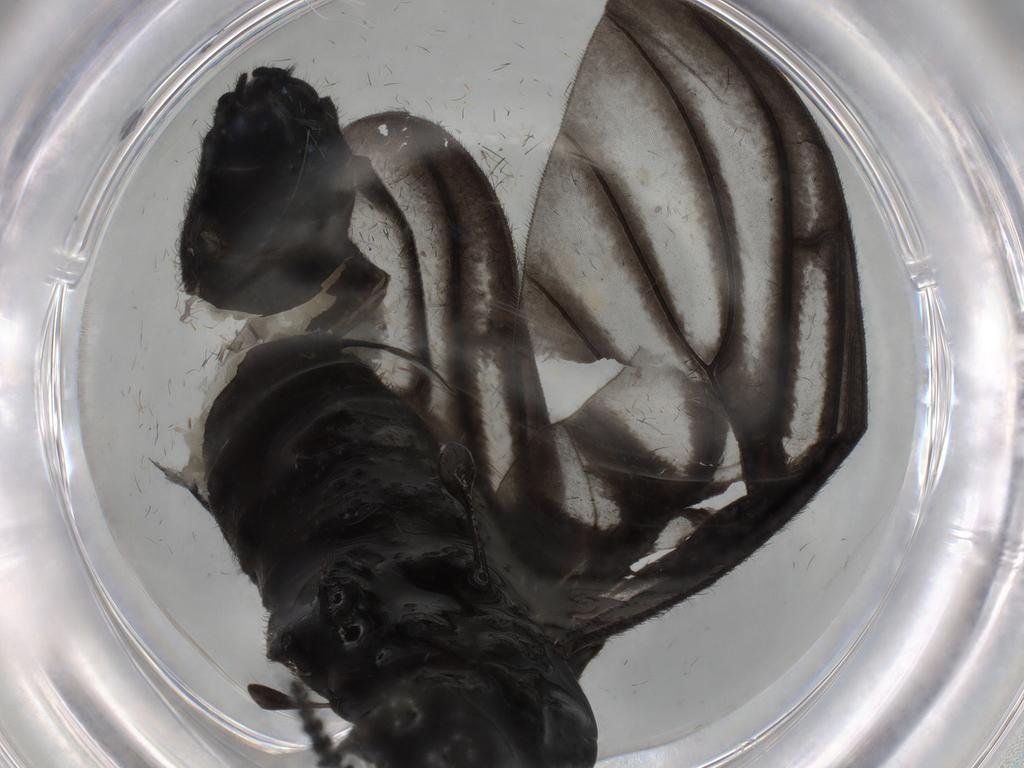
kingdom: Animalia
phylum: Arthropoda
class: Insecta
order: Diptera
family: Bibionidae
